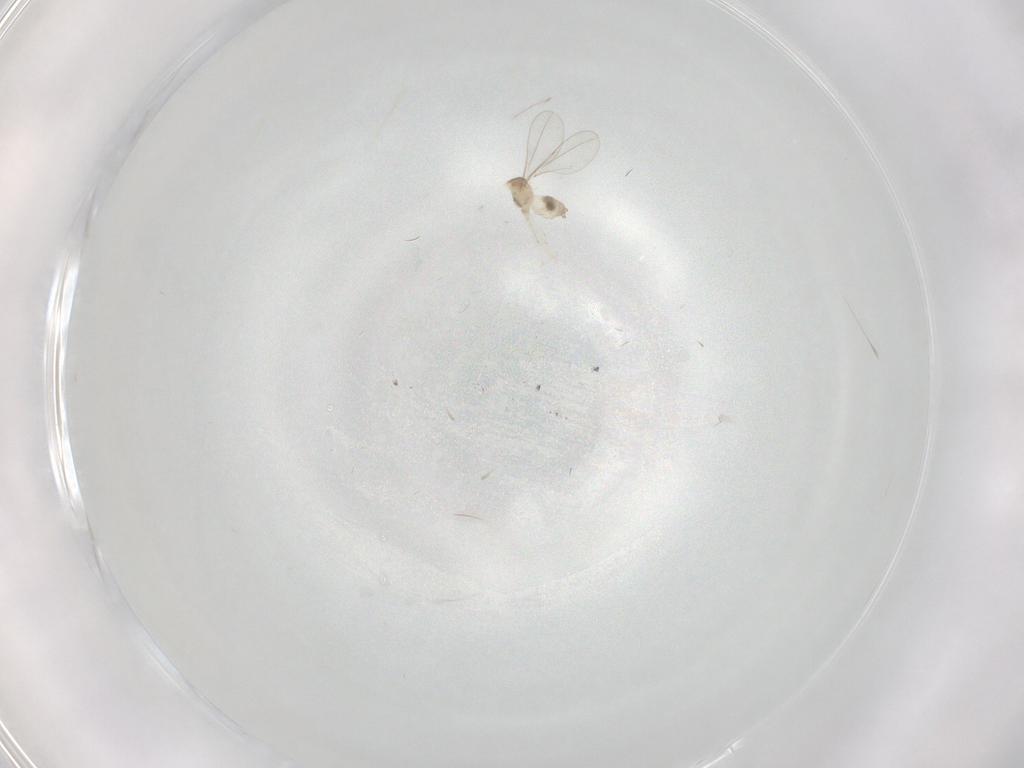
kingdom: Animalia
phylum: Arthropoda
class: Insecta
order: Diptera
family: Cecidomyiidae
